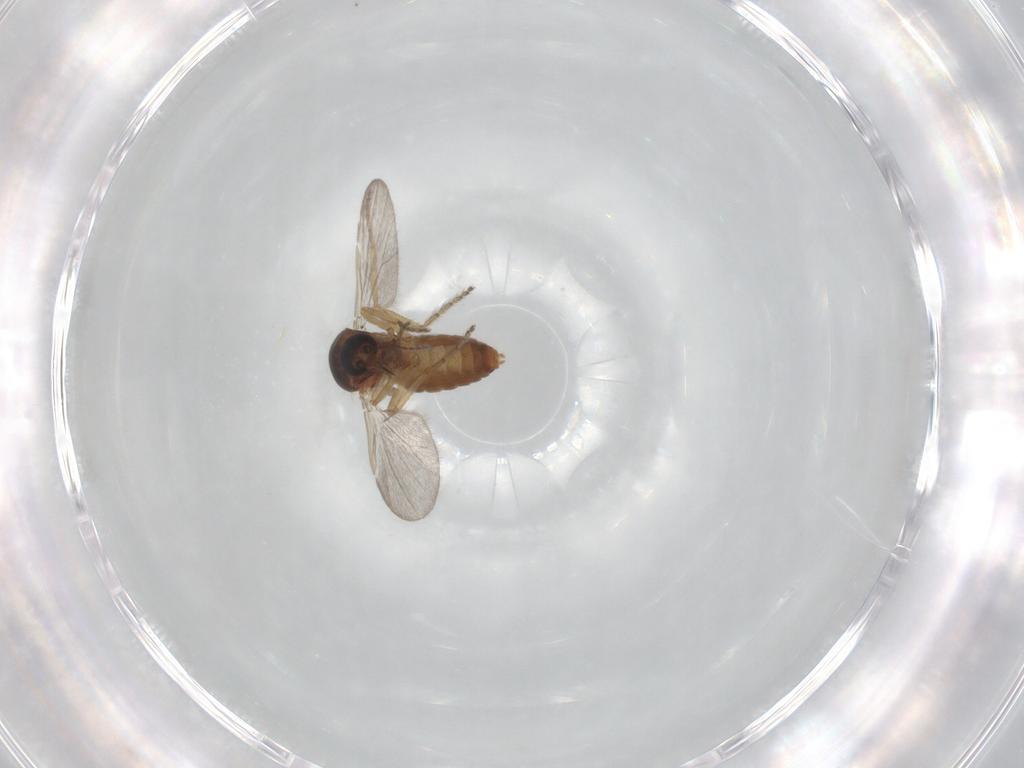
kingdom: Animalia
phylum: Arthropoda
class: Insecta
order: Diptera
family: Ceratopogonidae
